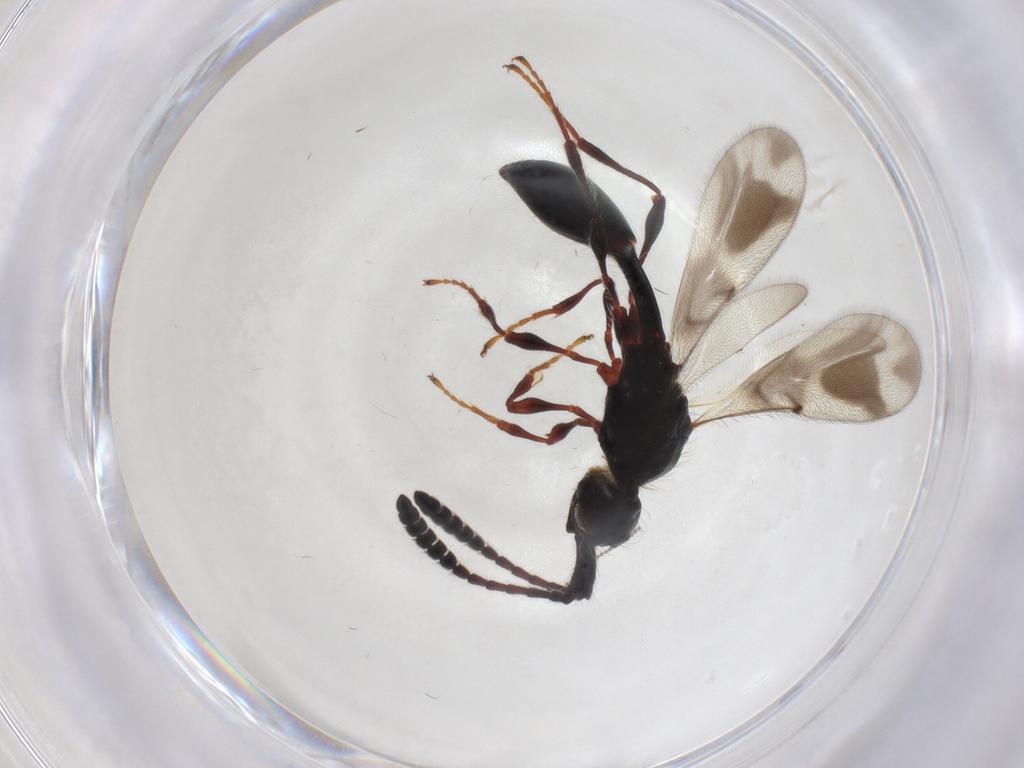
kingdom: Animalia
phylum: Arthropoda
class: Insecta
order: Hymenoptera
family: Diapriidae
